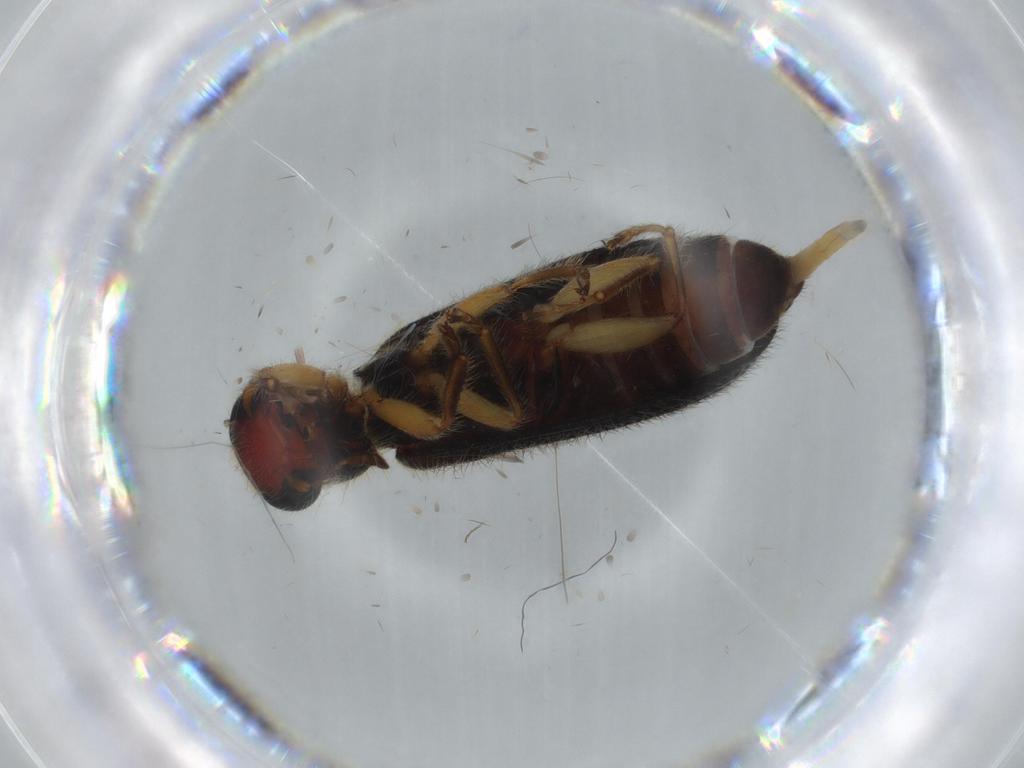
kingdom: Animalia
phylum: Arthropoda
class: Insecta
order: Coleoptera
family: Cleridae
